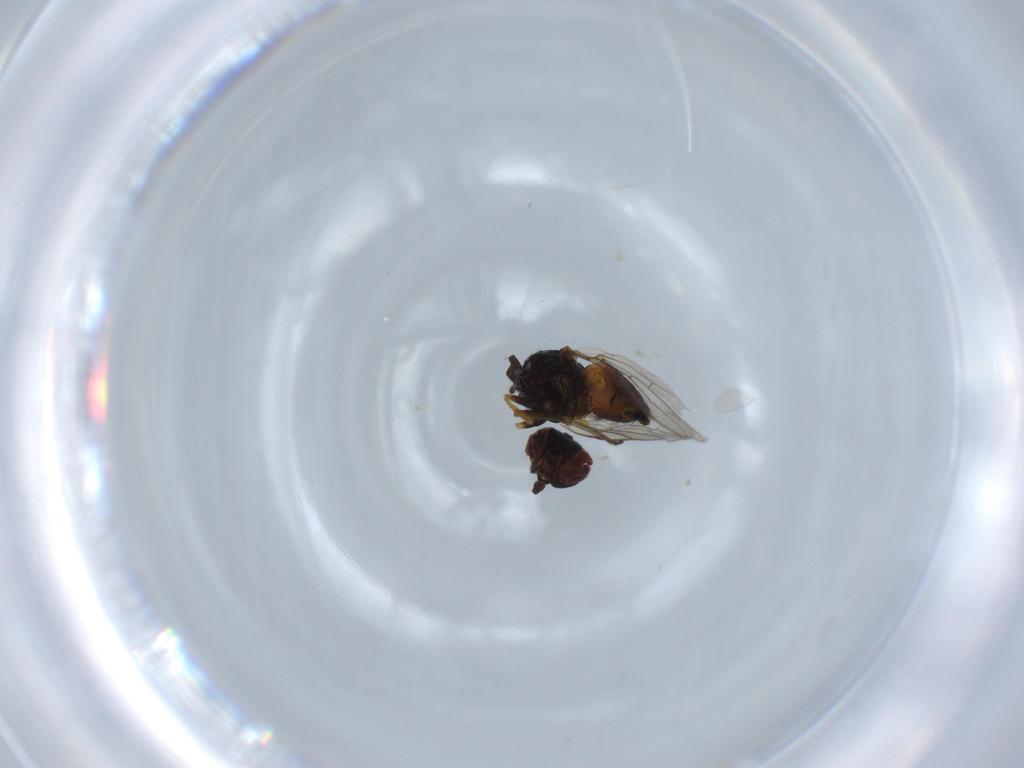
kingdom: Animalia
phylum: Arthropoda
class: Insecta
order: Diptera
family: Chloropidae
